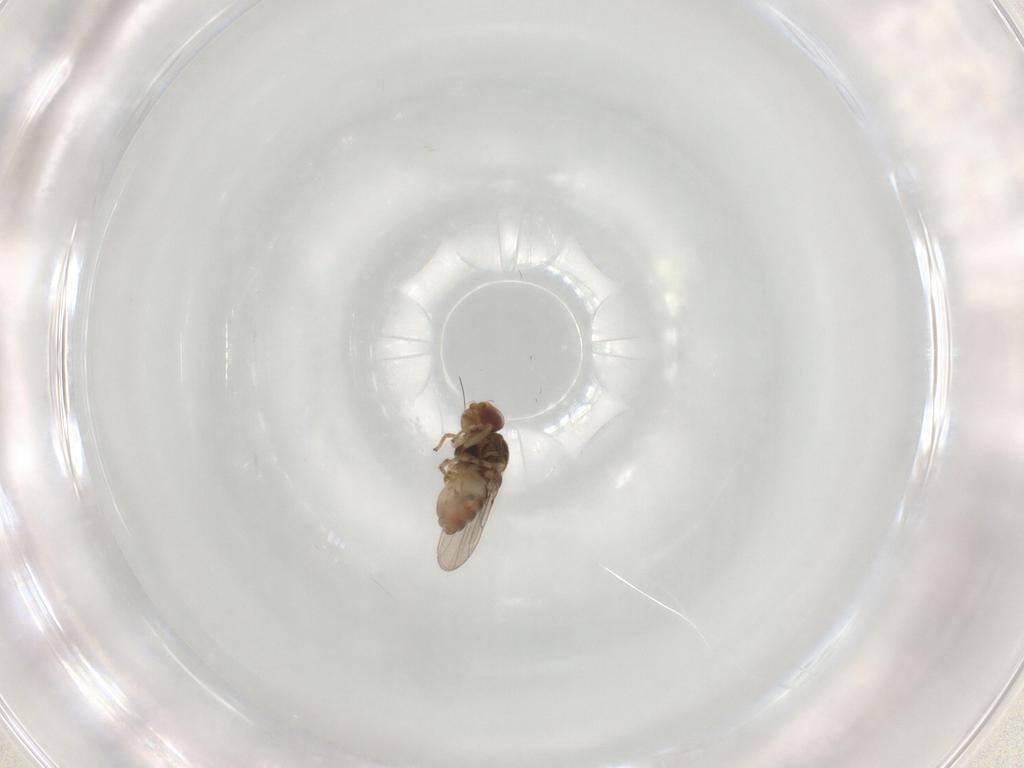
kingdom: Animalia
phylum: Arthropoda
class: Insecta
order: Diptera
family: Chloropidae
